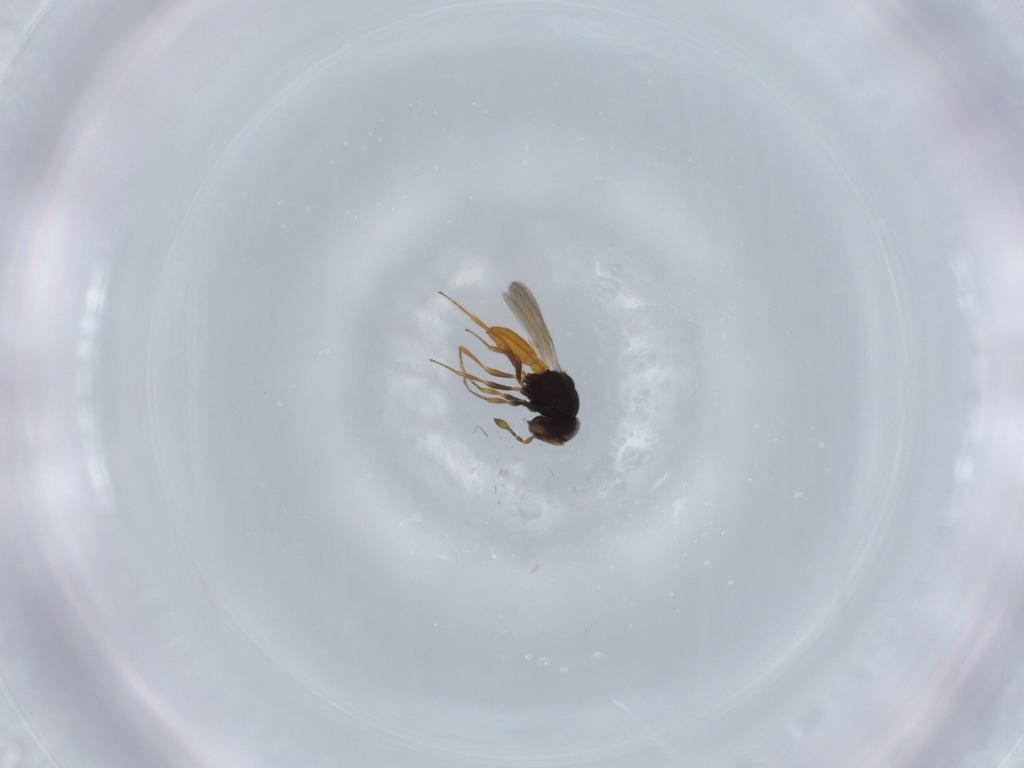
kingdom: Animalia
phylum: Arthropoda
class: Insecta
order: Hymenoptera
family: Scelionidae
